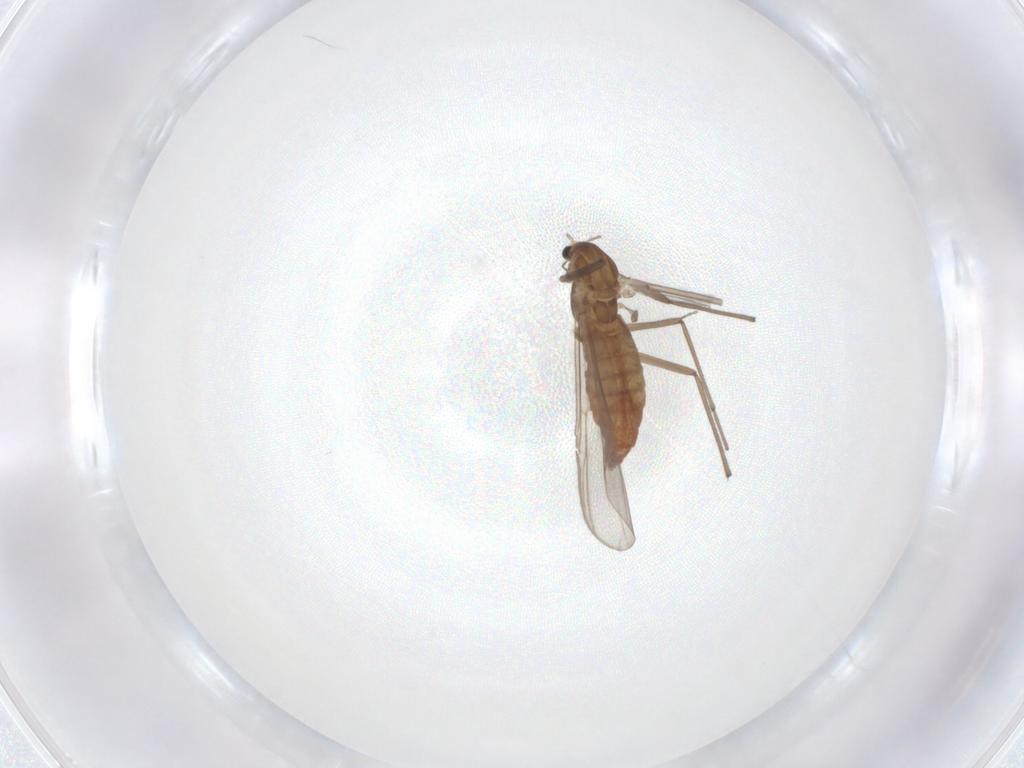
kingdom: Animalia
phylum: Arthropoda
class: Insecta
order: Diptera
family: Chironomidae
